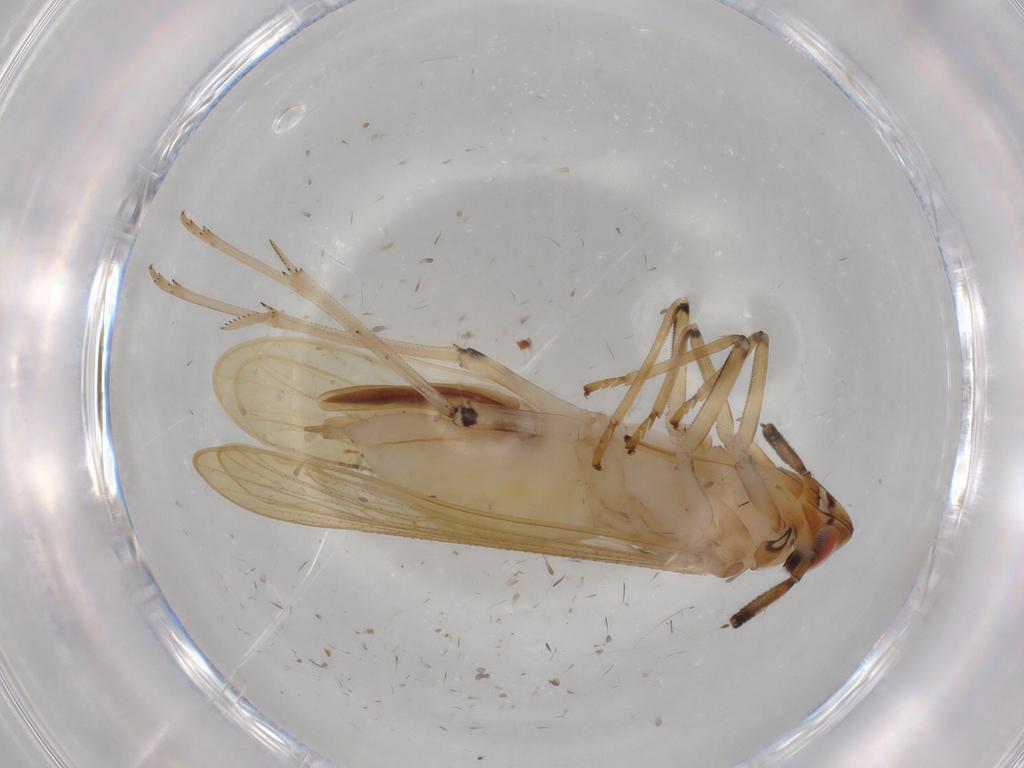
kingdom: Animalia
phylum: Arthropoda
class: Insecta
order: Hemiptera
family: Delphacidae
